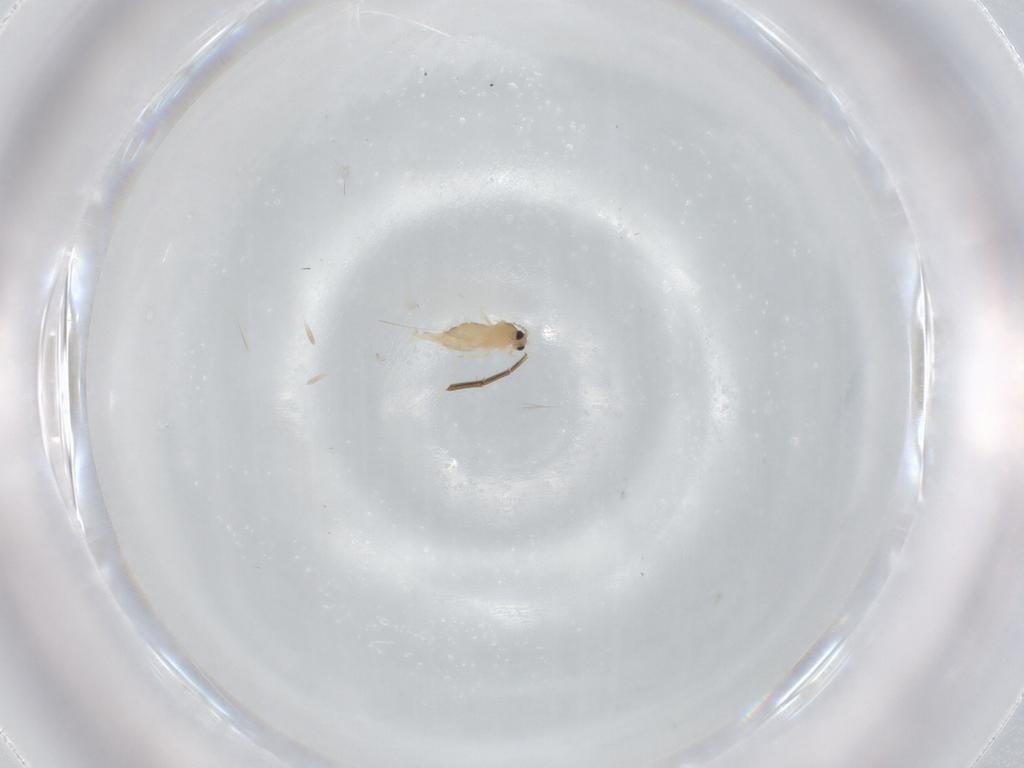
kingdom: Animalia
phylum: Arthropoda
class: Insecta
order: Diptera
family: Cecidomyiidae
